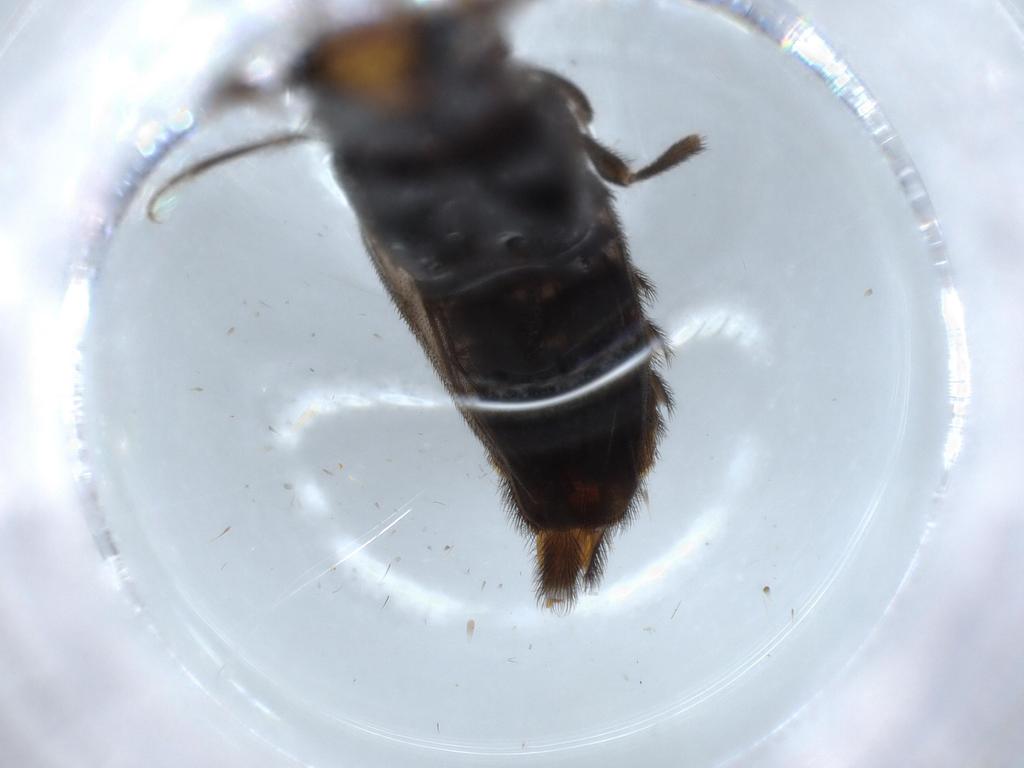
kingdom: Animalia
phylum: Arthropoda
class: Insecta
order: Coleoptera
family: Phengodidae
